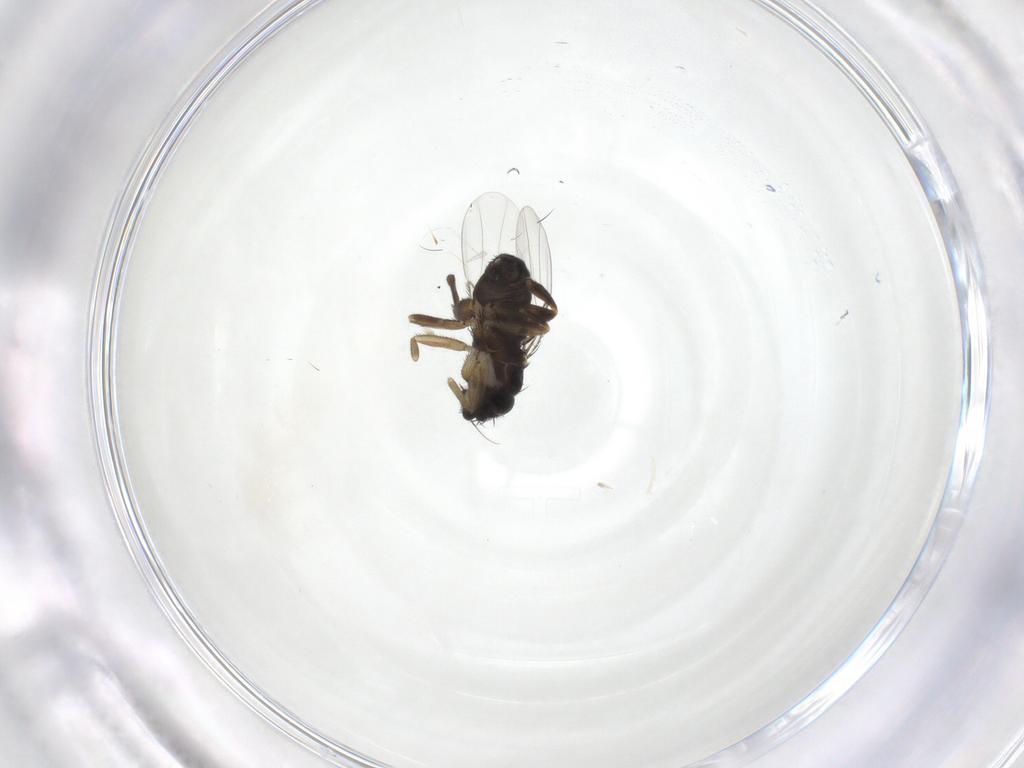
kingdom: Animalia
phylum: Arthropoda
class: Insecta
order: Diptera
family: Phoridae
